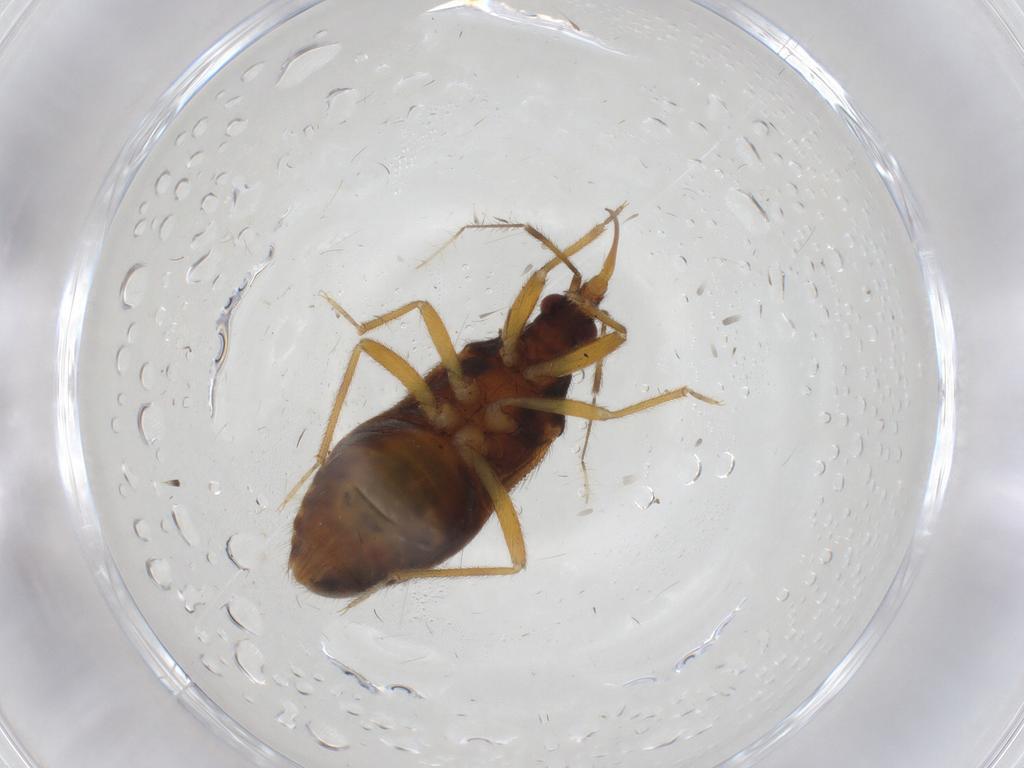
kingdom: Animalia
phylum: Arthropoda
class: Insecta
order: Hemiptera
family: Anthocoridae
